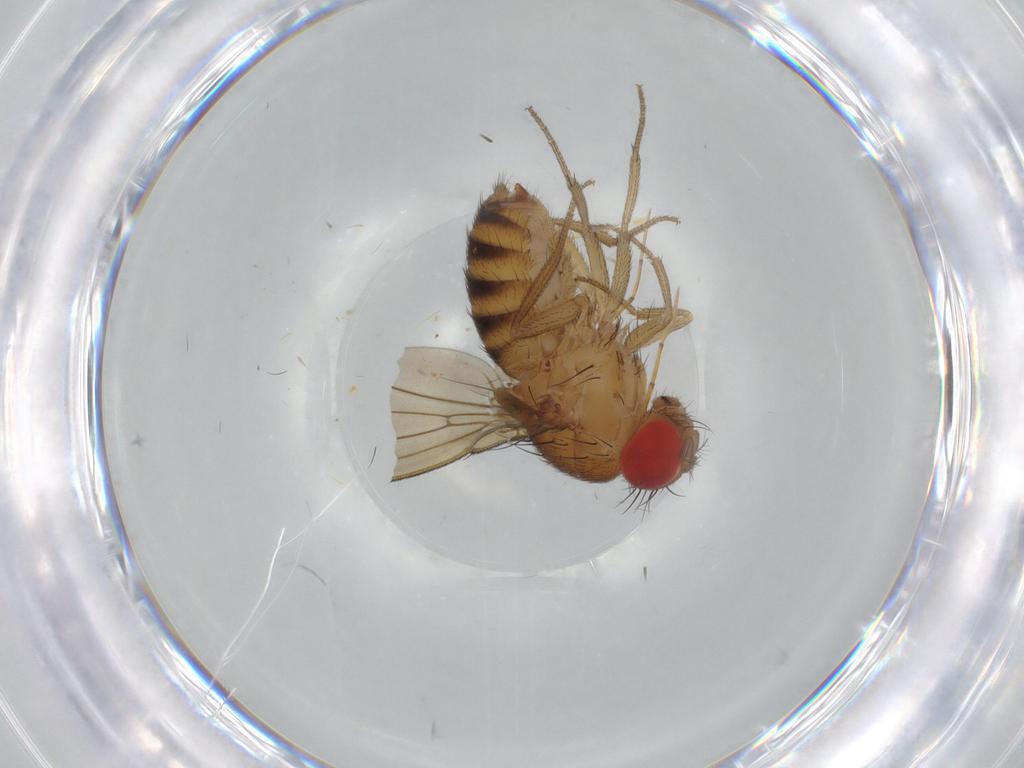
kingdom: Animalia
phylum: Arthropoda
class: Insecta
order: Diptera
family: Drosophilidae
